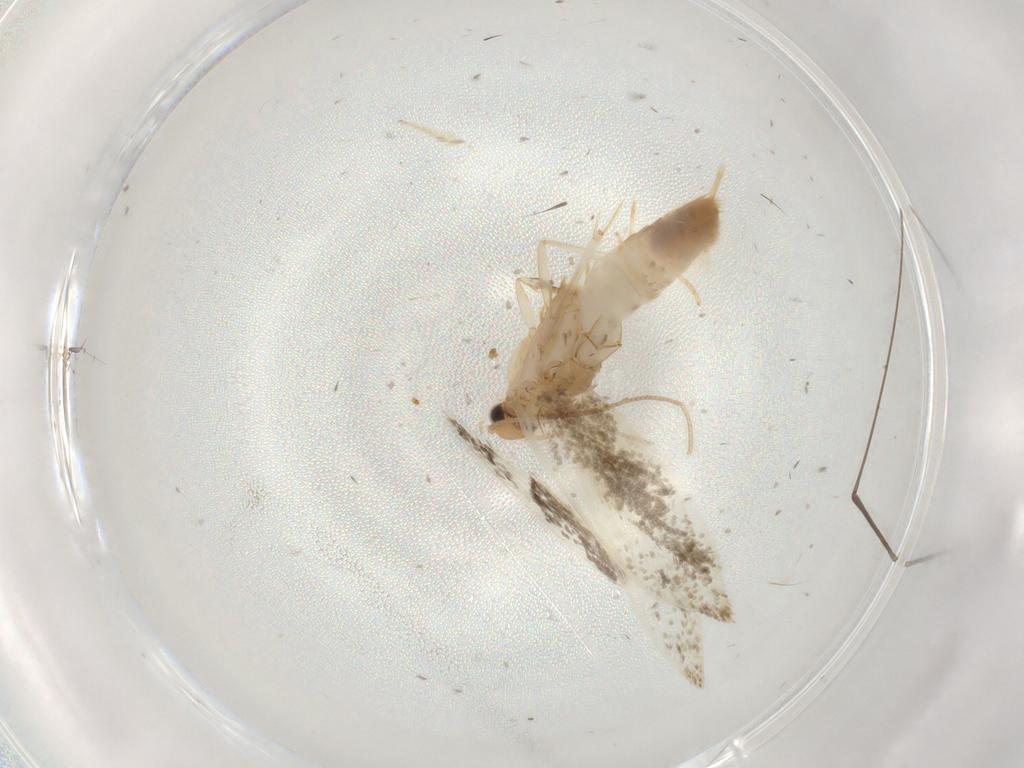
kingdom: Animalia
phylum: Arthropoda
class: Insecta
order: Lepidoptera
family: Tineidae
